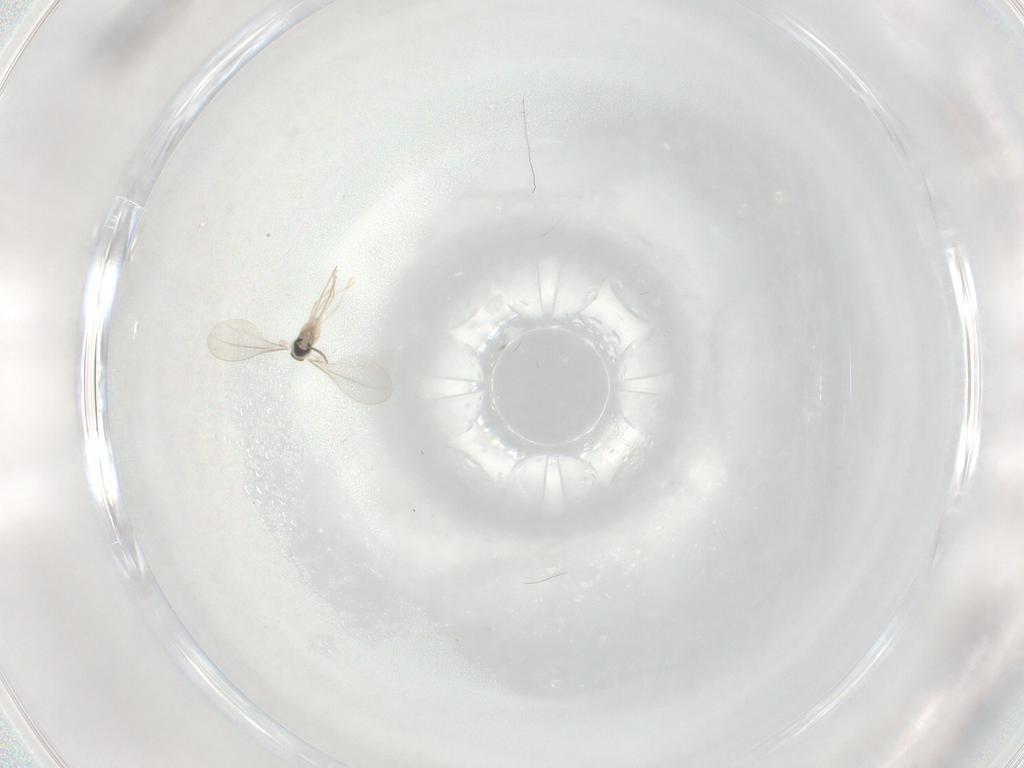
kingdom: Animalia
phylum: Arthropoda
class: Insecta
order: Diptera
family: Cecidomyiidae
